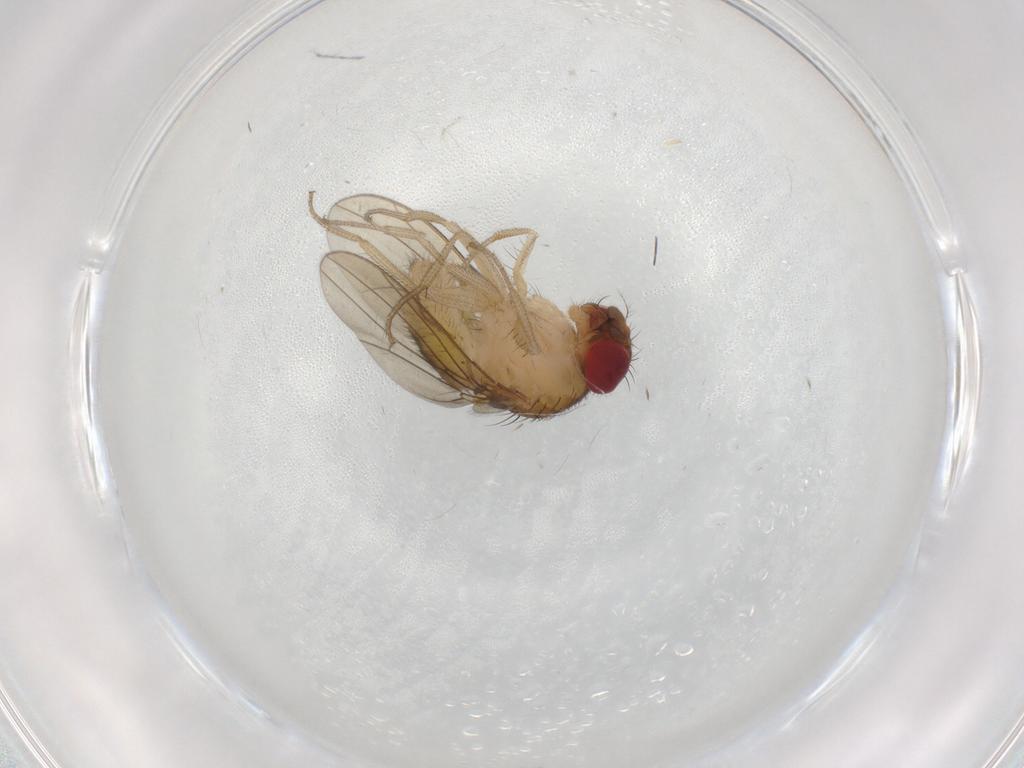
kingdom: Animalia
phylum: Arthropoda
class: Insecta
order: Diptera
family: Drosophilidae
